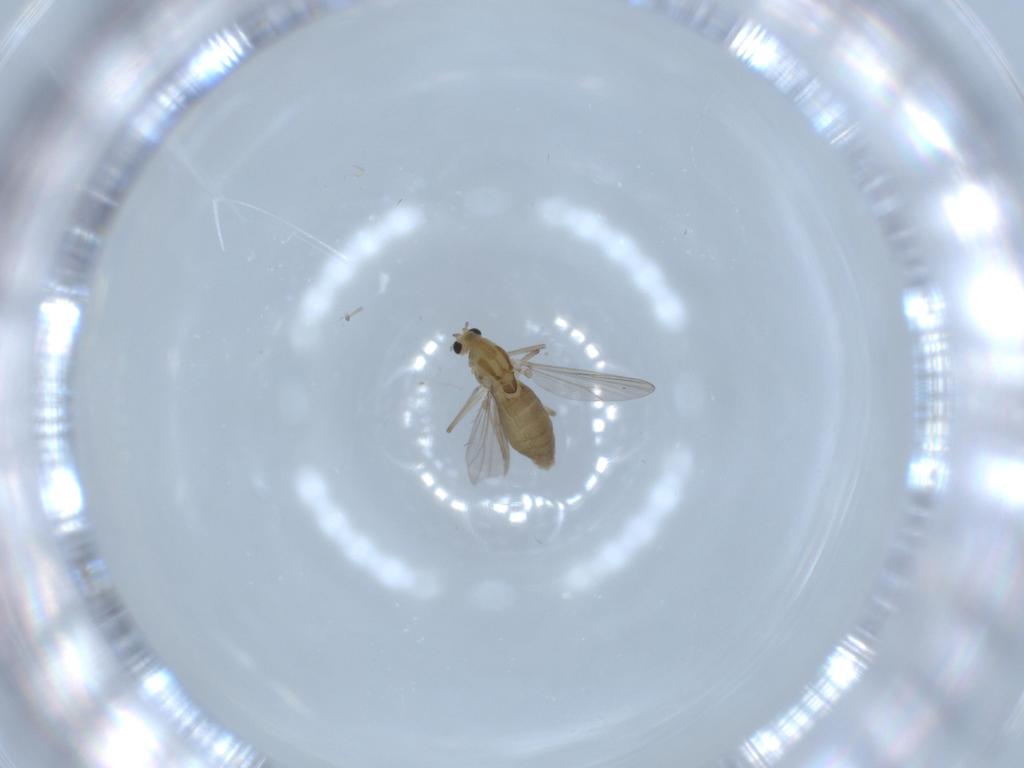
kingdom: Animalia
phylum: Arthropoda
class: Insecta
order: Diptera
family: Chironomidae
